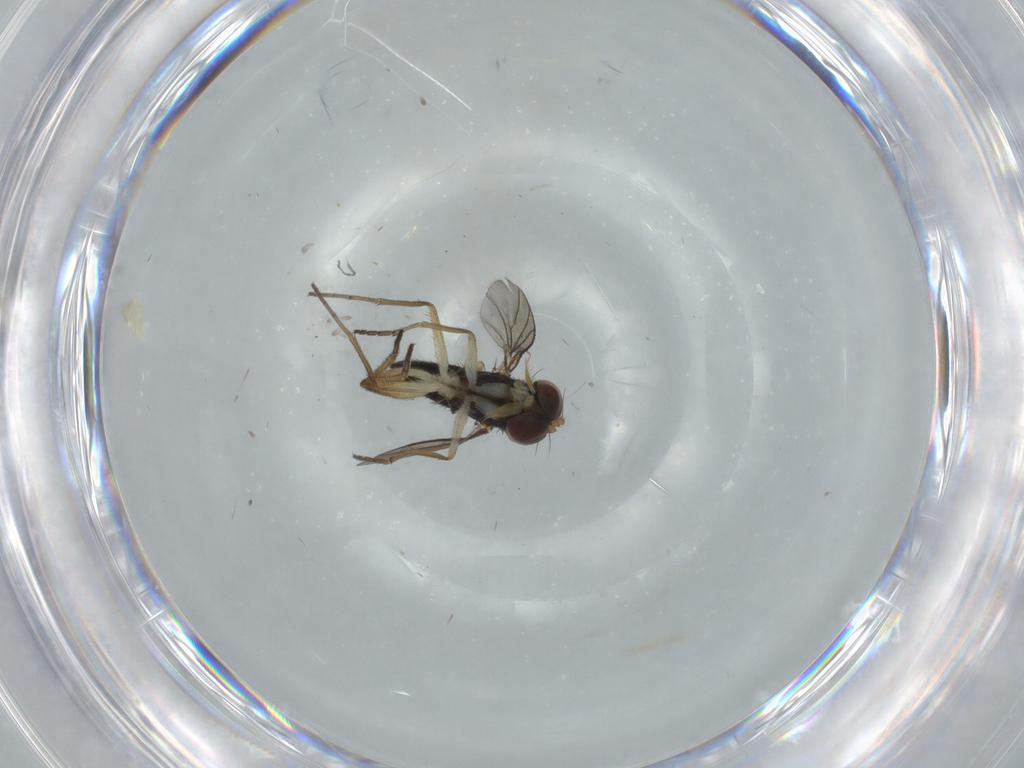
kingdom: Animalia
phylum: Arthropoda
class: Insecta
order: Diptera
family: Dolichopodidae
